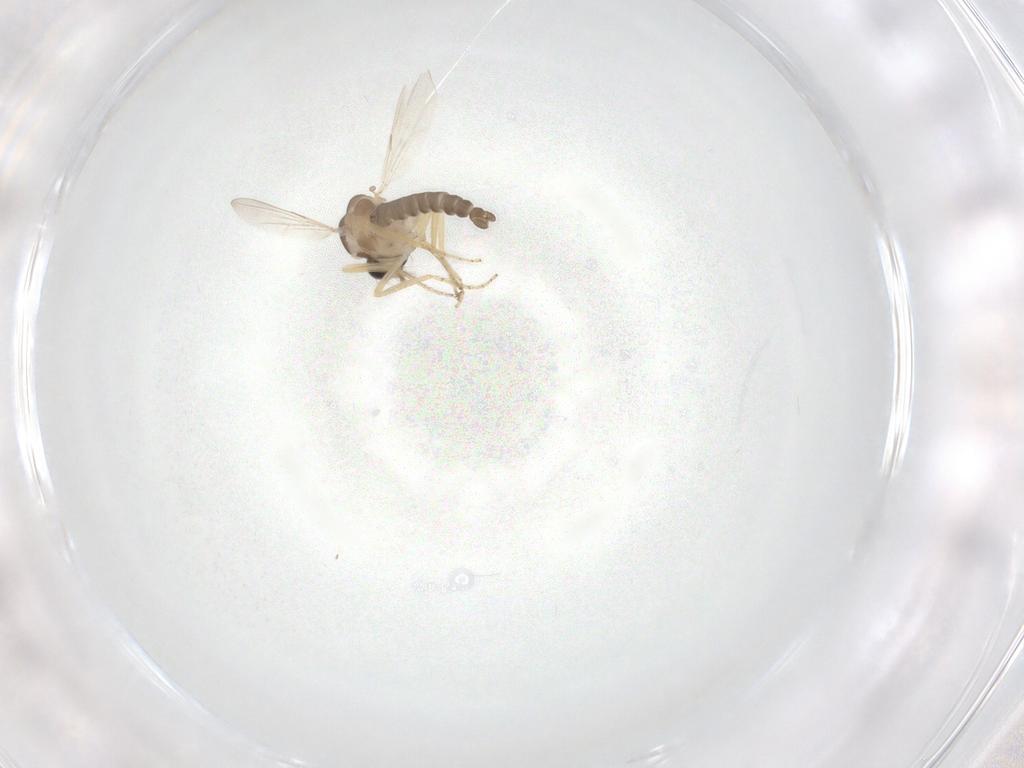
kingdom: Animalia
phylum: Arthropoda
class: Insecta
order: Diptera
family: Ceratopogonidae
